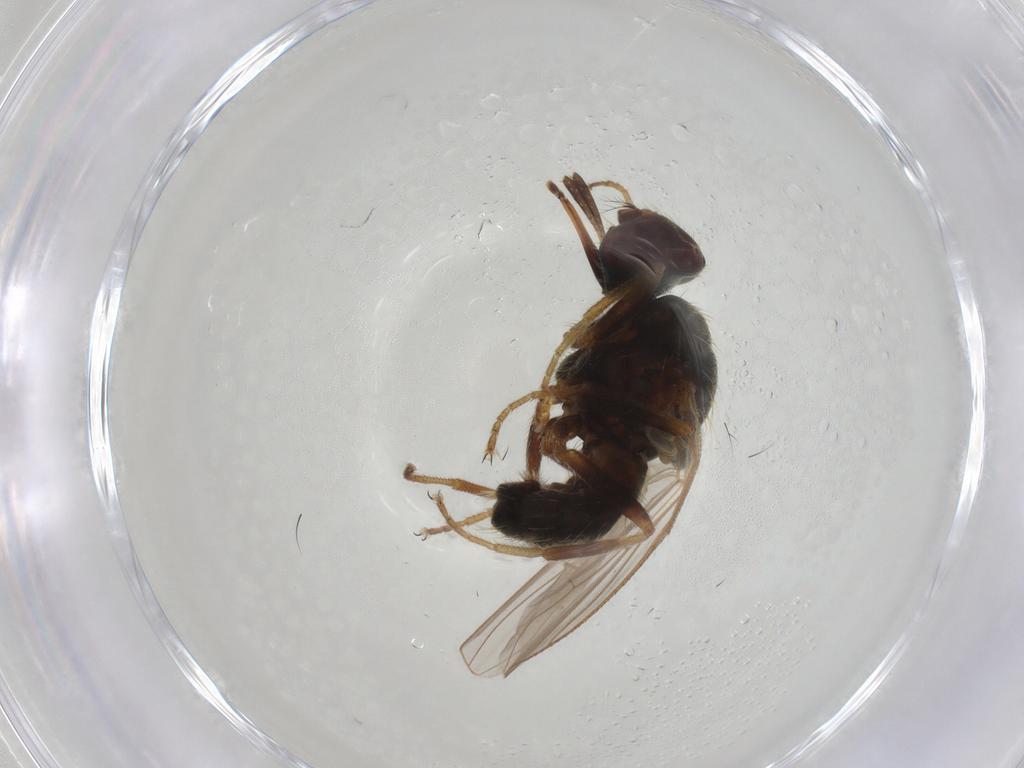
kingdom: Animalia
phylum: Arthropoda
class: Insecta
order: Diptera
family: Muscidae
